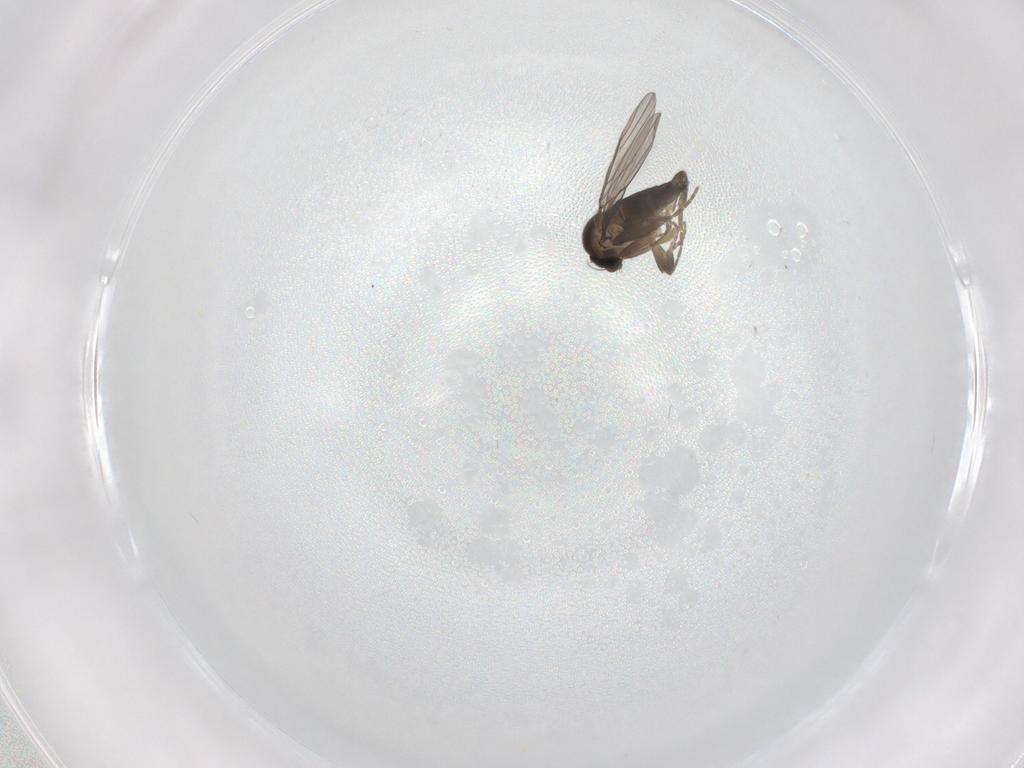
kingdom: Animalia
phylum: Arthropoda
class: Insecta
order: Diptera
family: Phoridae
